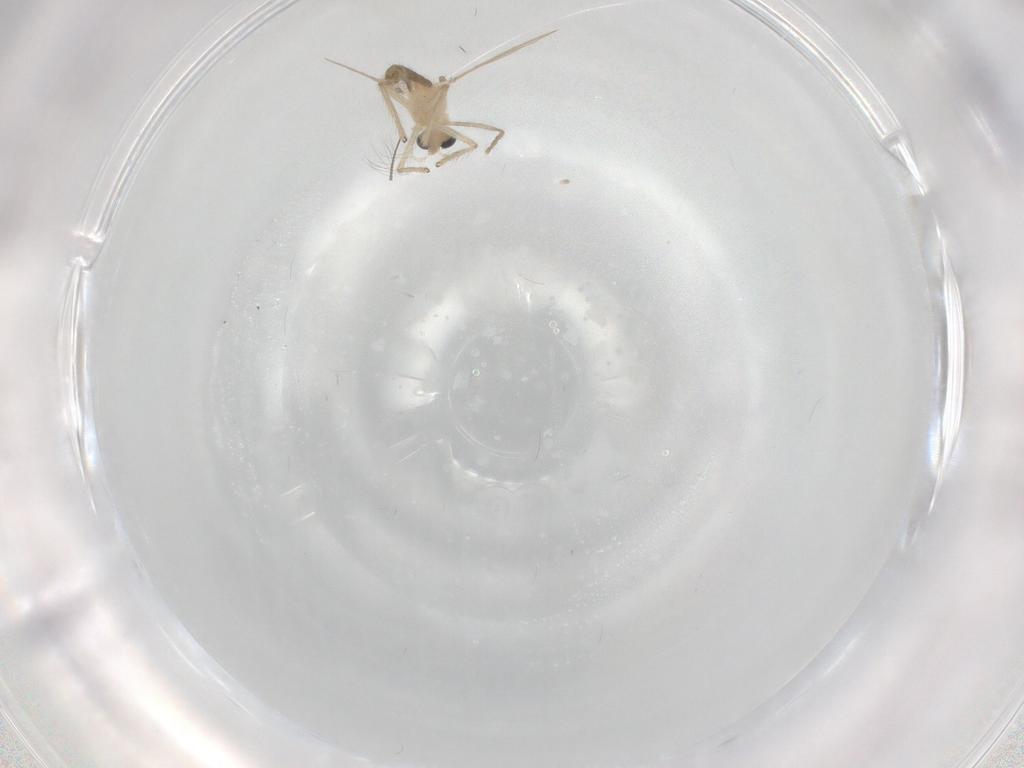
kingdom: Animalia
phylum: Arthropoda
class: Insecta
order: Diptera
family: Chironomidae
